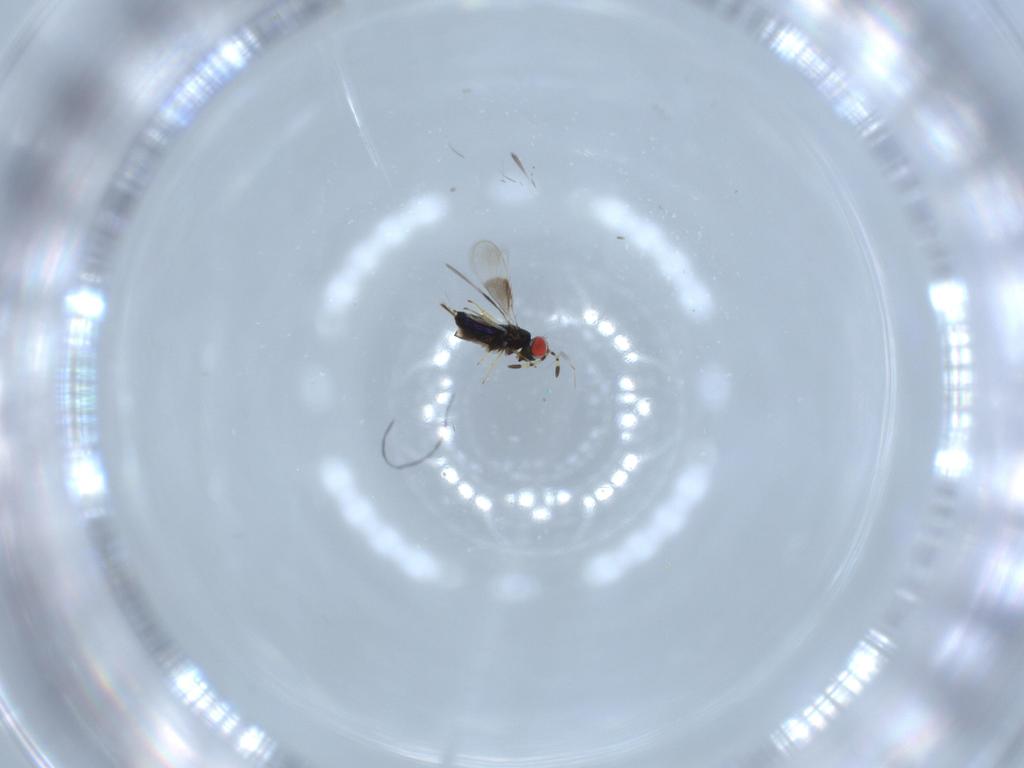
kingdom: Animalia
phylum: Arthropoda
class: Insecta
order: Hymenoptera
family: Azotidae
